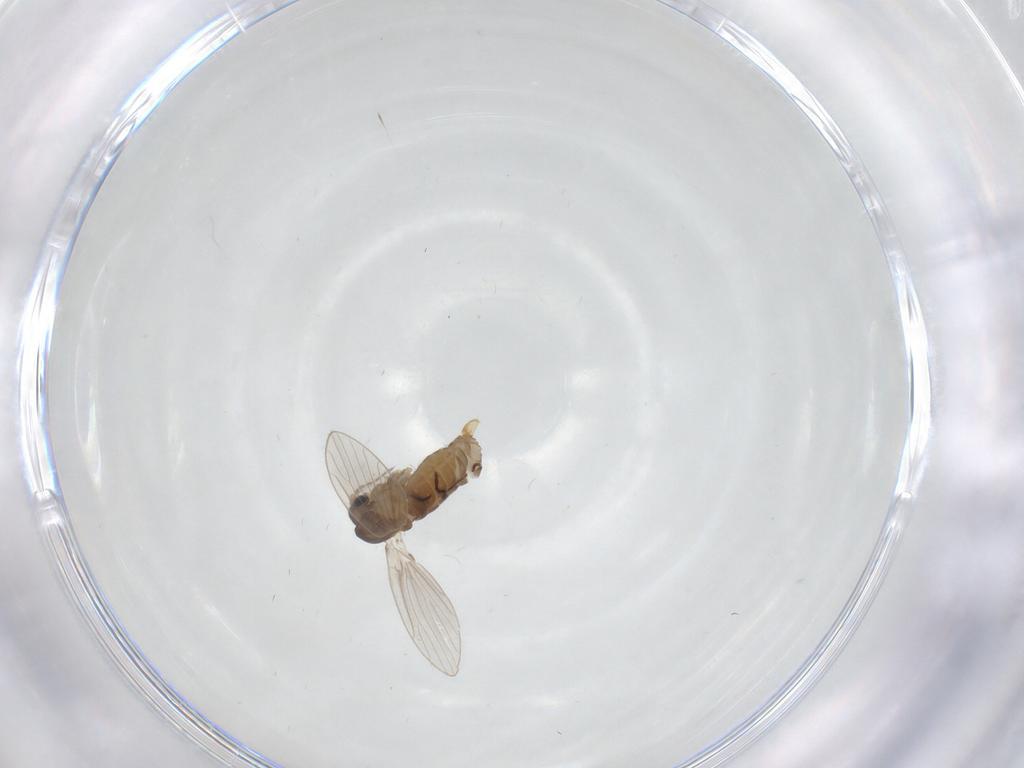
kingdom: Animalia
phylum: Arthropoda
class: Insecta
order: Diptera
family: Psychodidae
